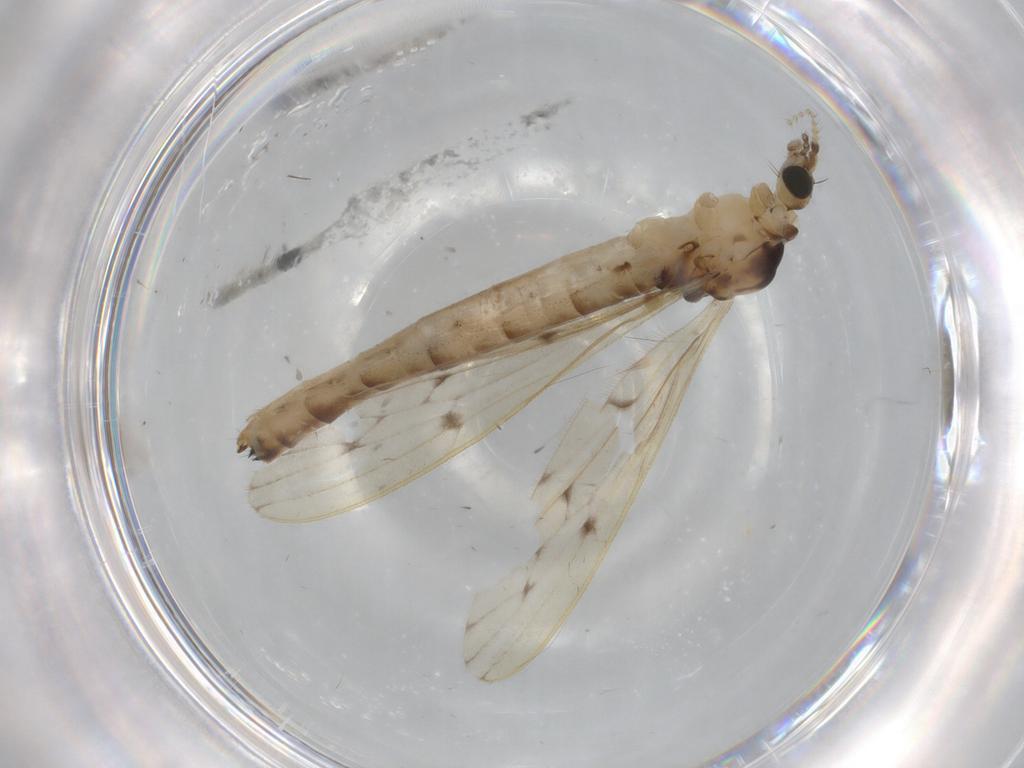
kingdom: Animalia
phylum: Arthropoda
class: Insecta
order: Diptera
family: Limoniidae
